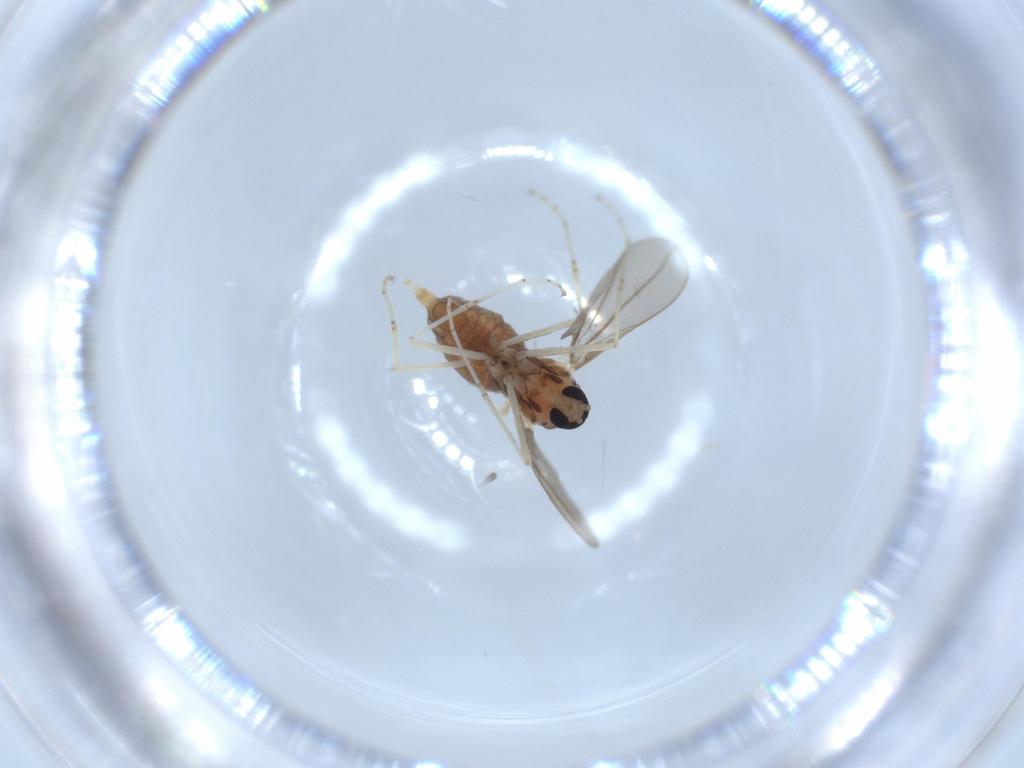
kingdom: Animalia
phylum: Arthropoda
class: Insecta
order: Diptera
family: Cecidomyiidae
